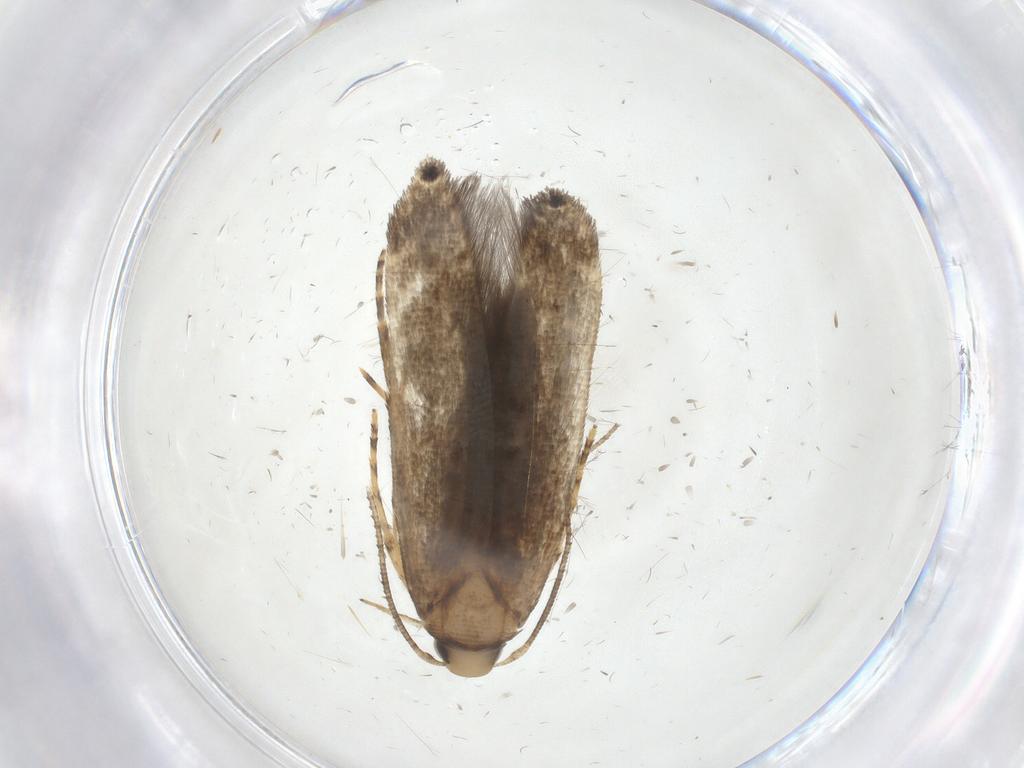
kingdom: Animalia
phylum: Arthropoda
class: Insecta
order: Lepidoptera
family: Cosmopterigidae
